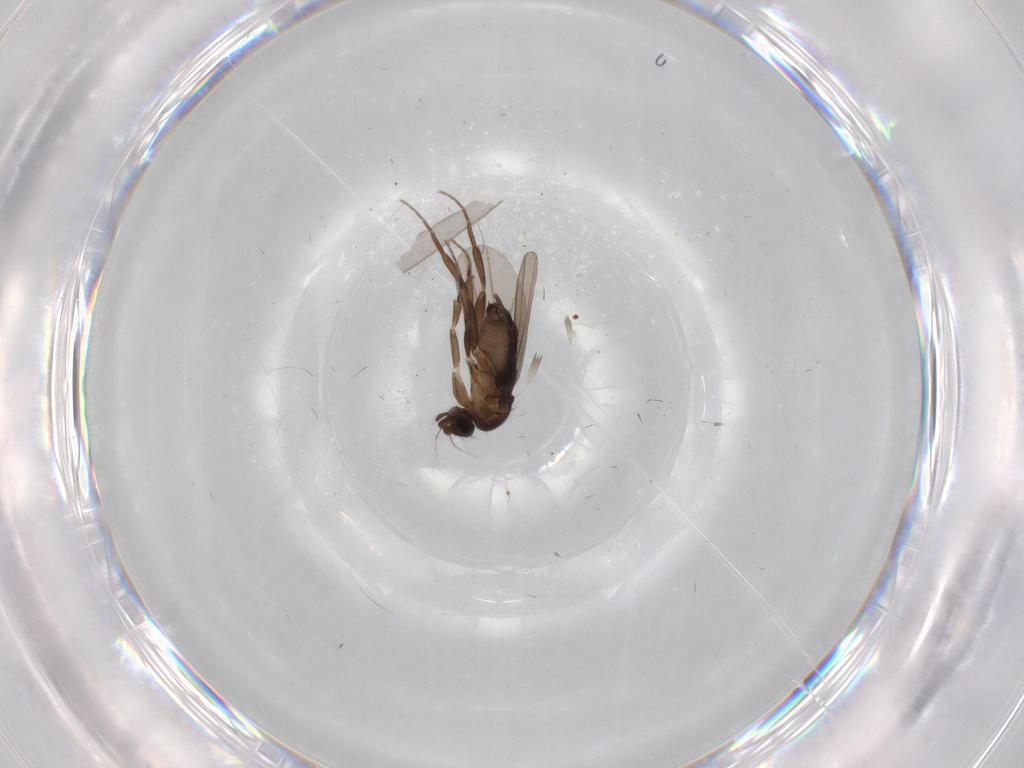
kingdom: Animalia
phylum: Arthropoda
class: Insecta
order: Diptera
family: Phoridae
